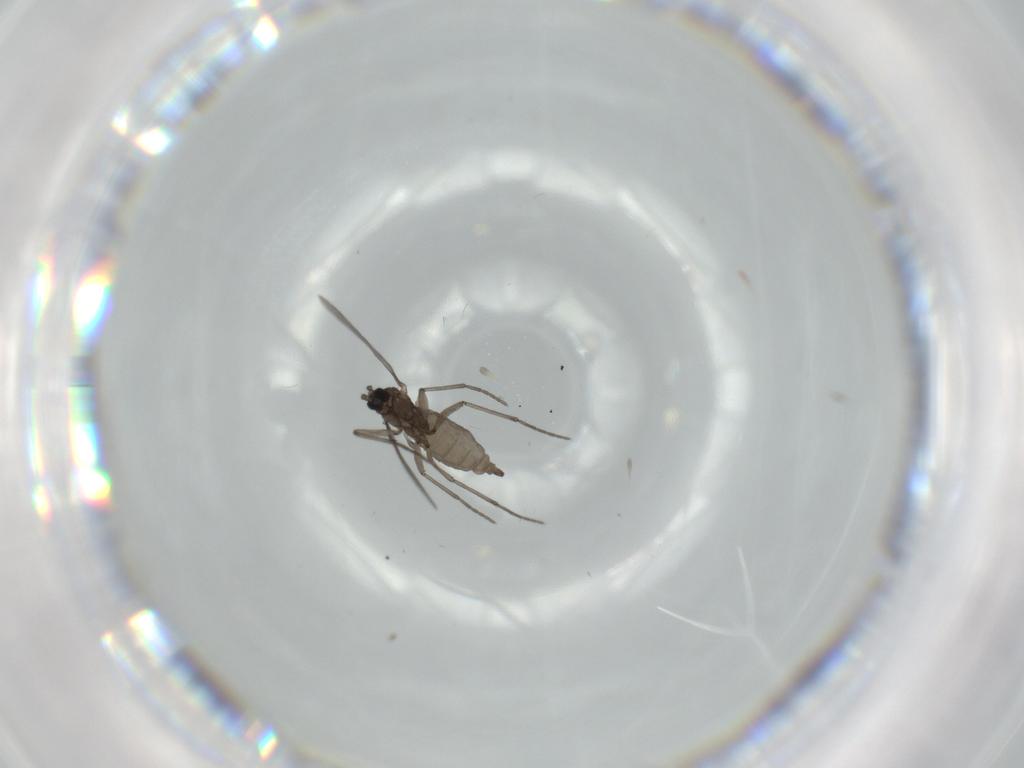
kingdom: Animalia
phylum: Arthropoda
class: Insecta
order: Diptera
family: Sciaridae
